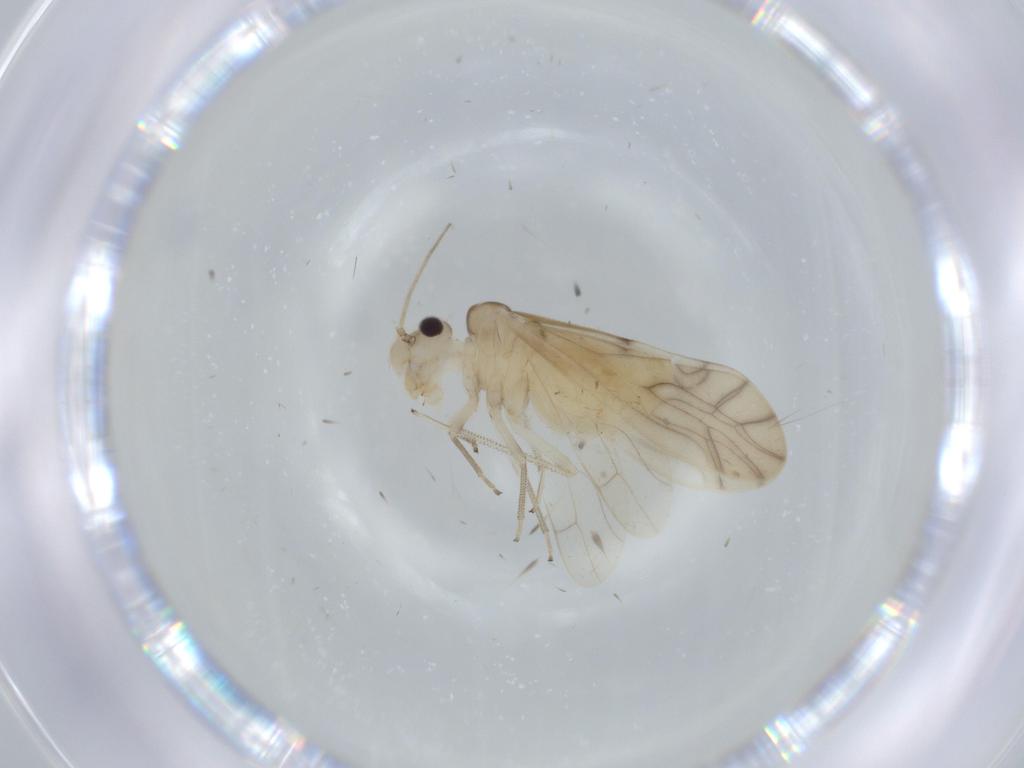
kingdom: Animalia
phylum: Arthropoda
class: Insecta
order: Psocodea
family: Caeciliusidae
